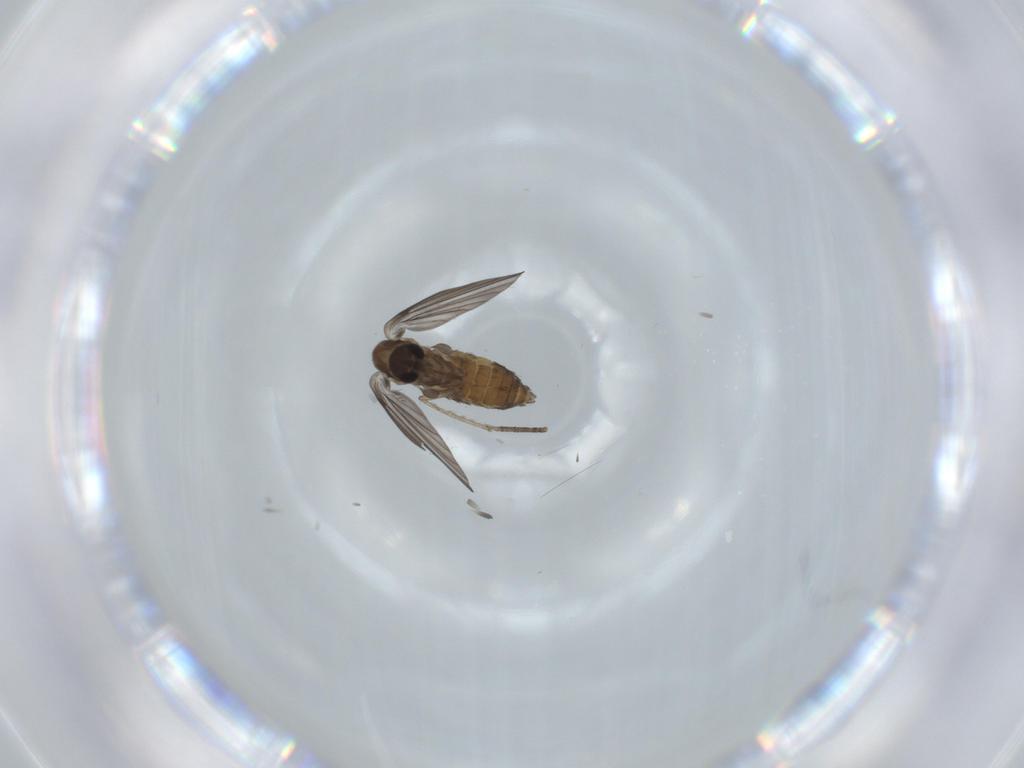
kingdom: Animalia
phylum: Arthropoda
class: Insecta
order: Diptera
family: Psychodidae
